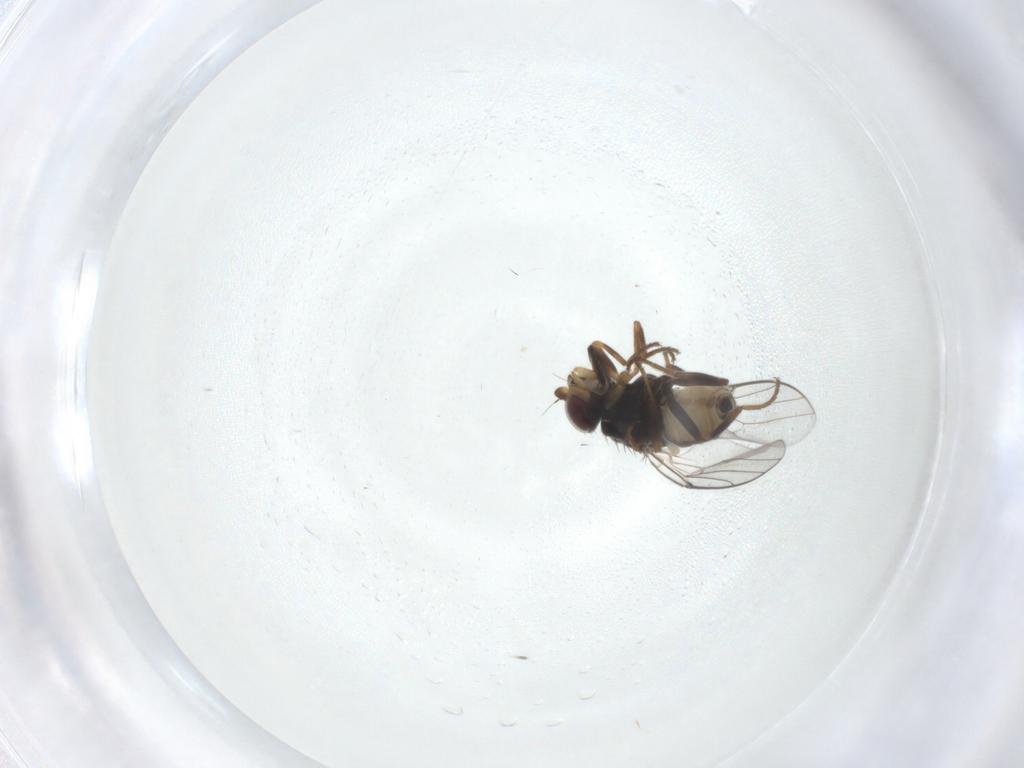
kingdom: Animalia
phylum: Arthropoda
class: Insecta
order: Diptera
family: Chloropidae
